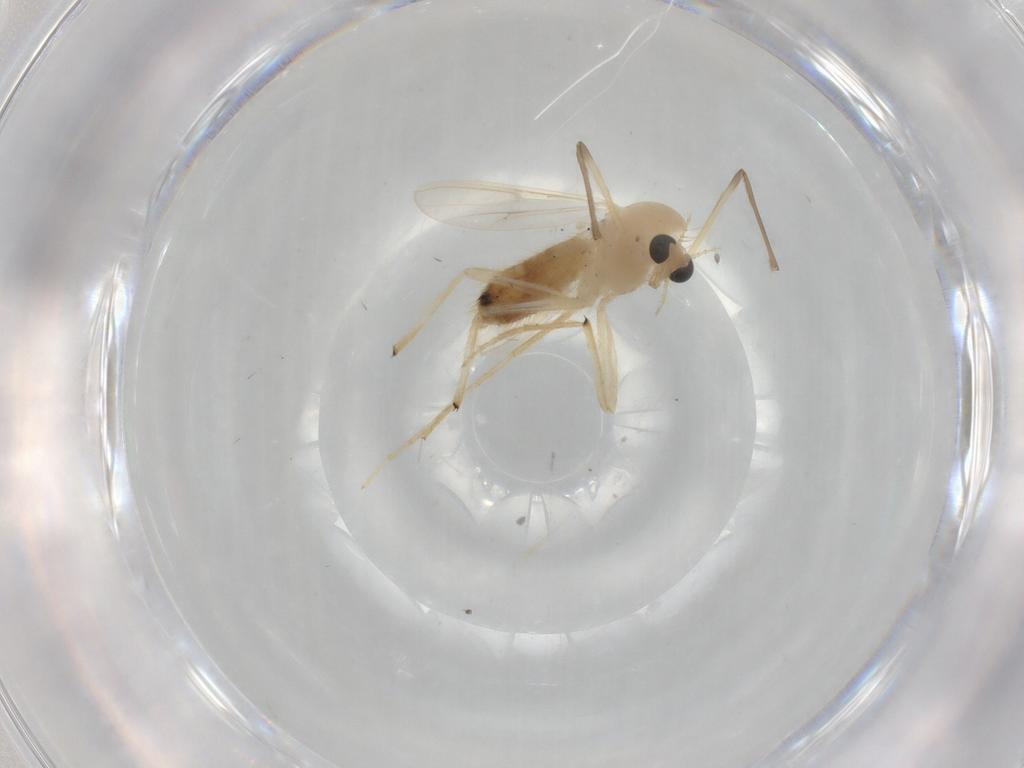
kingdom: Animalia
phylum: Arthropoda
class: Insecta
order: Diptera
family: Chironomidae
